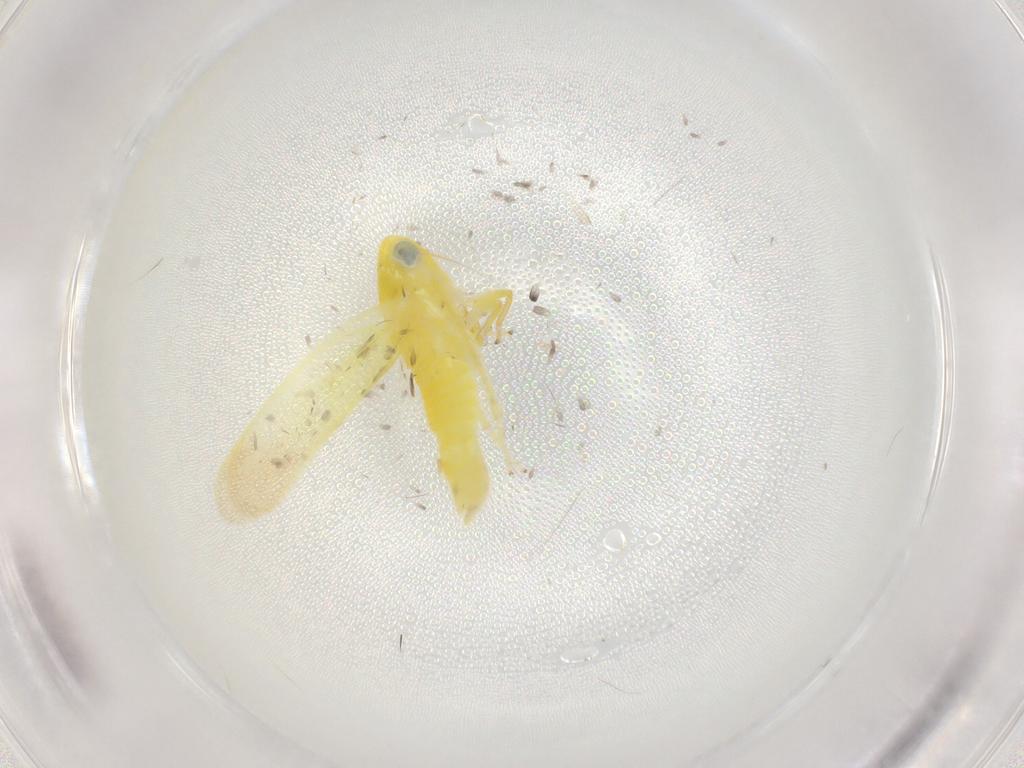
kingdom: Animalia
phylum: Arthropoda
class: Insecta
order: Hemiptera
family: Cicadellidae
